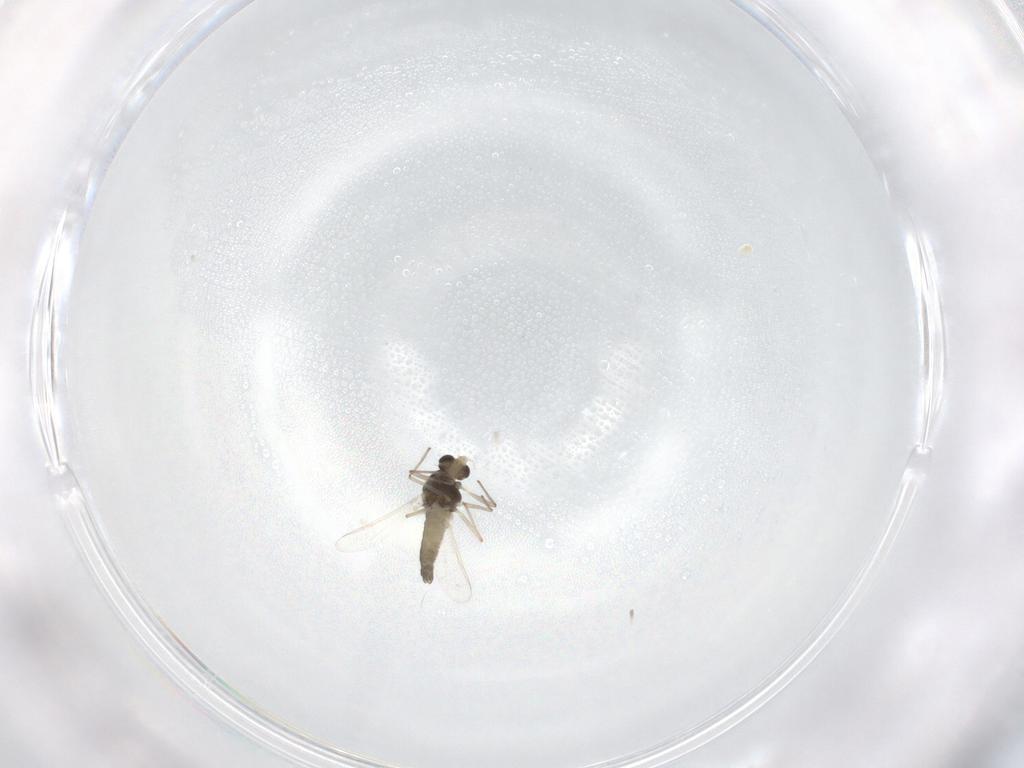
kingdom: Animalia
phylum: Arthropoda
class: Insecta
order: Diptera
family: Chironomidae
